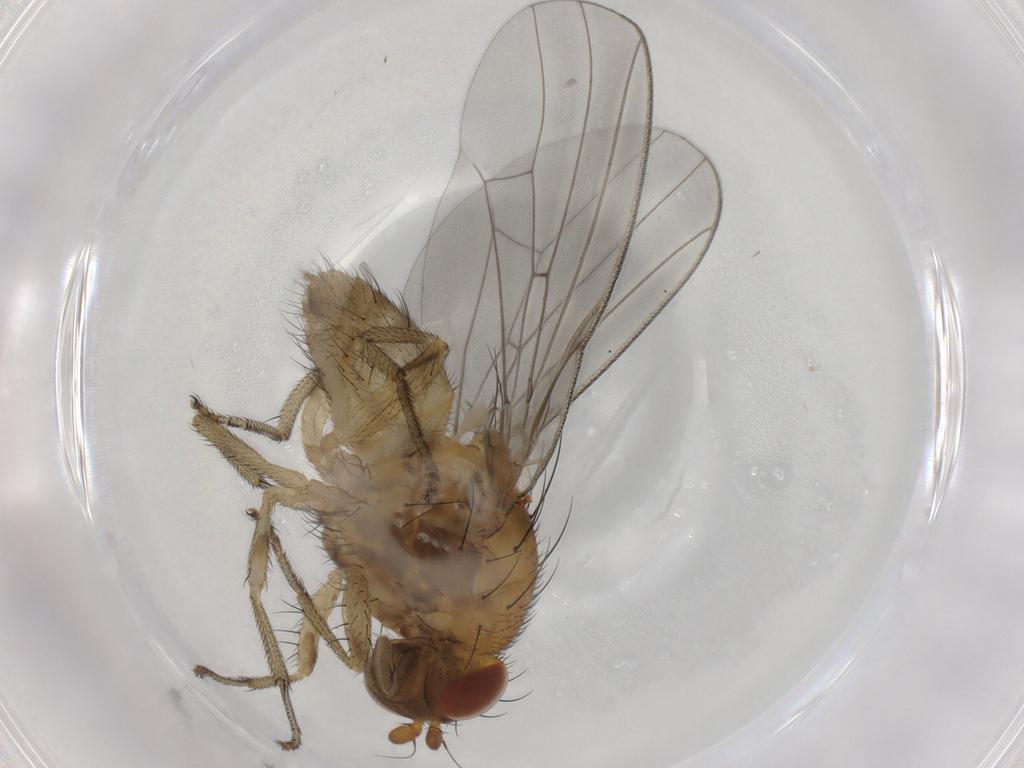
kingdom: Animalia
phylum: Arthropoda
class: Insecta
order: Diptera
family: Lauxaniidae
